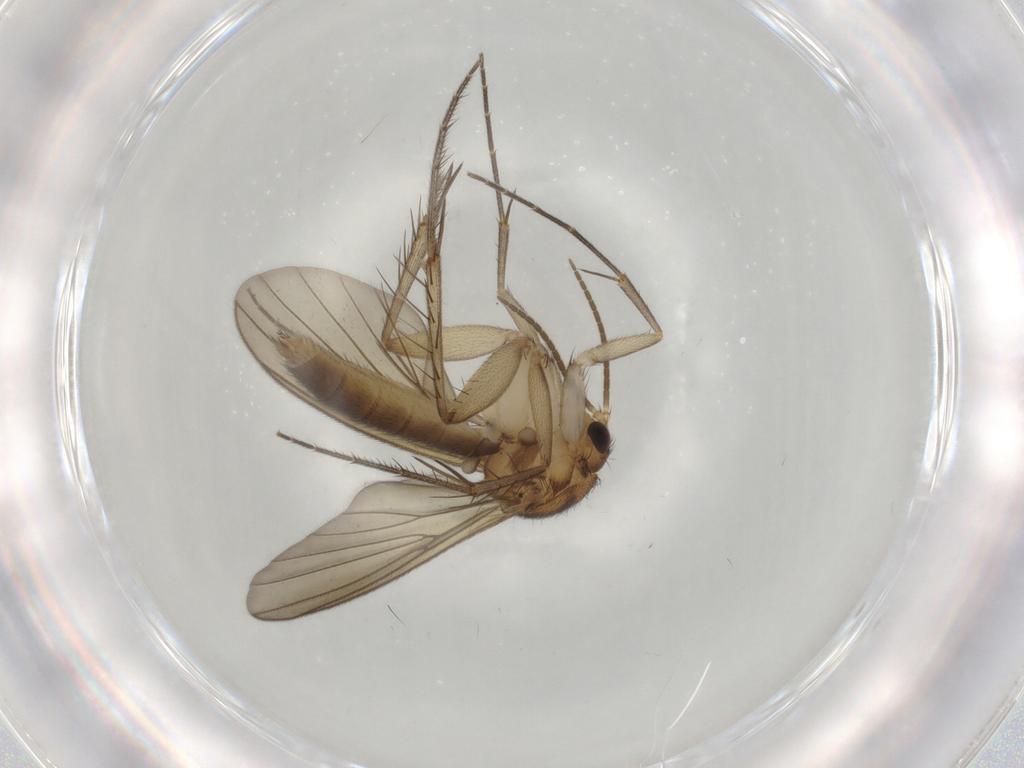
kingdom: Animalia
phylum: Arthropoda
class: Insecta
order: Diptera
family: Mycetophilidae
